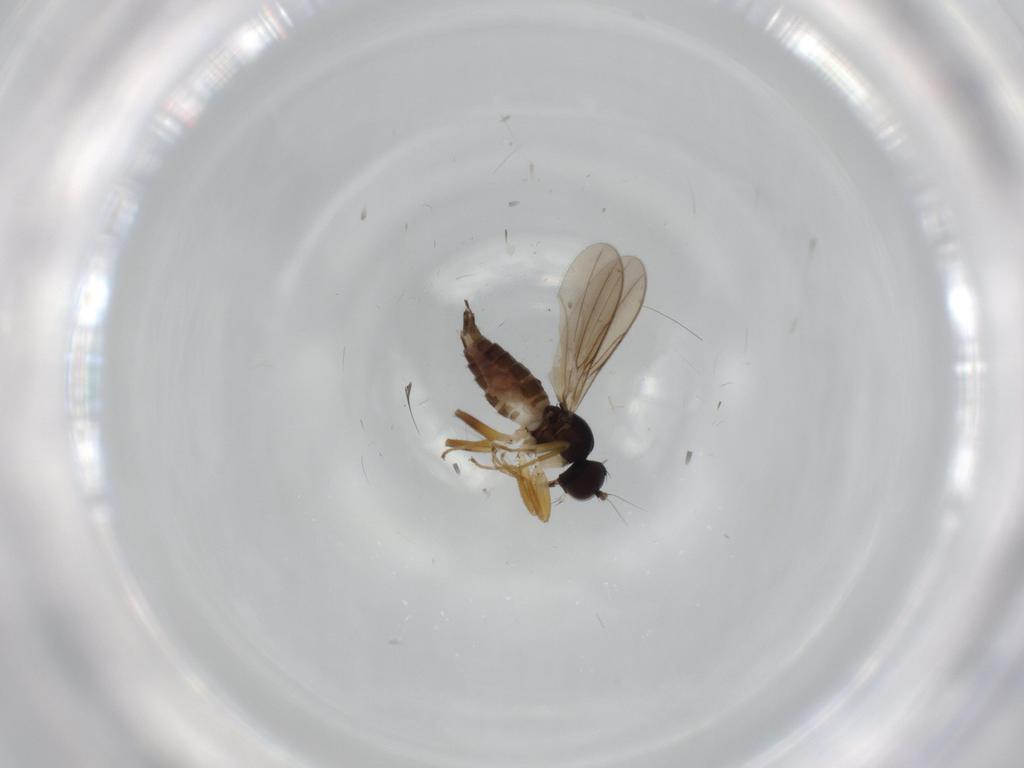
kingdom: Animalia
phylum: Arthropoda
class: Insecta
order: Diptera
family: Hybotidae
